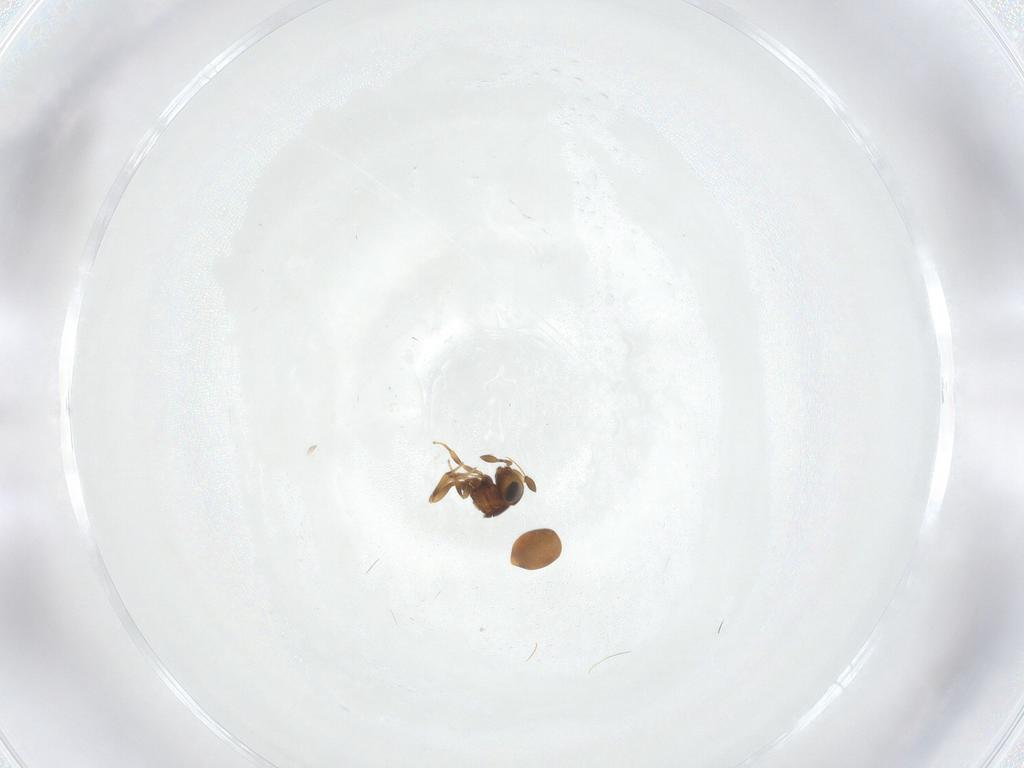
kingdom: Animalia
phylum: Arthropoda
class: Insecta
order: Hymenoptera
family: Scelionidae
